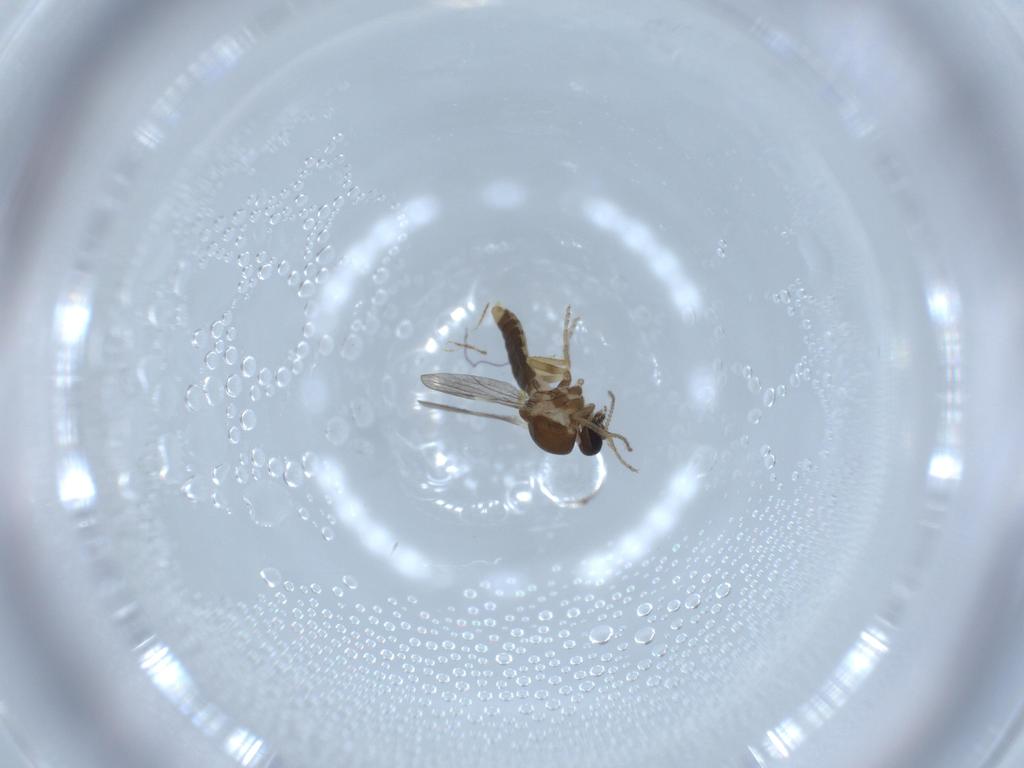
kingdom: Animalia
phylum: Arthropoda
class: Insecta
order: Diptera
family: Ceratopogonidae
